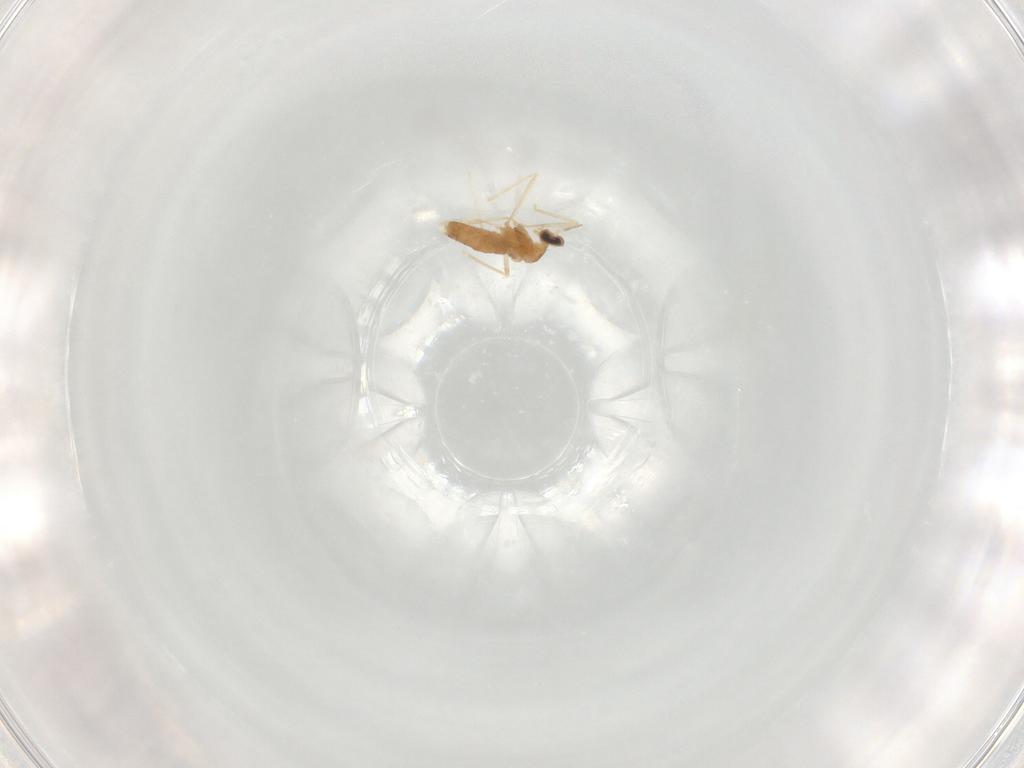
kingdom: Animalia
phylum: Arthropoda
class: Insecta
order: Diptera
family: Cecidomyiidae
